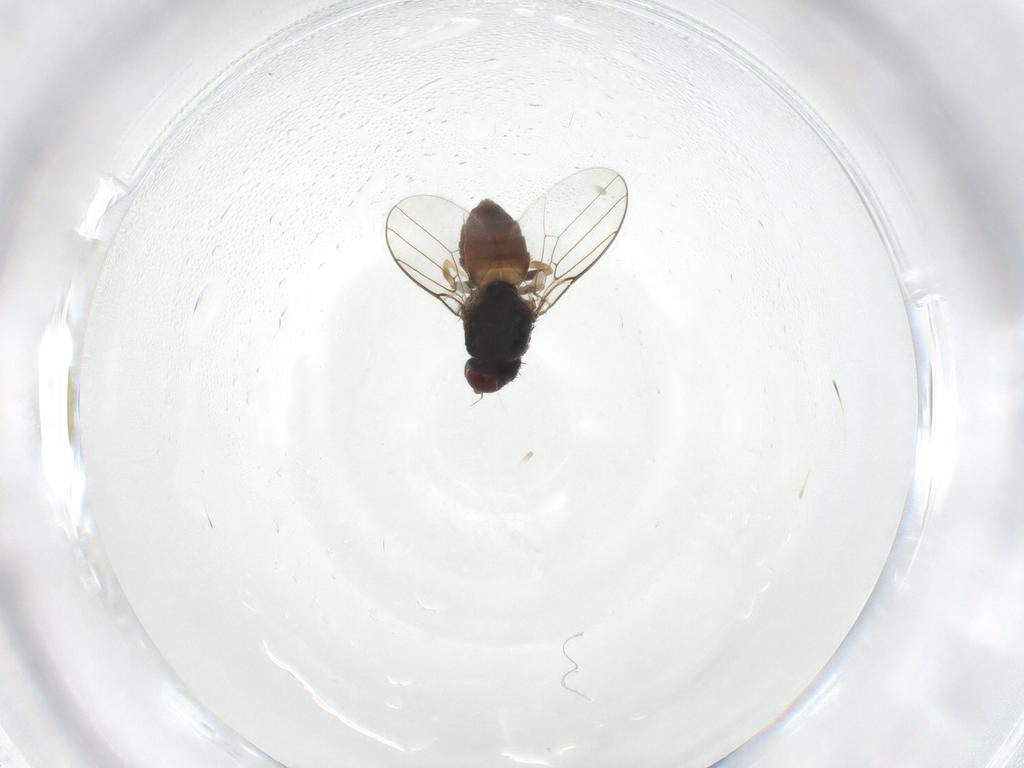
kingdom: Animalia
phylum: Arthropoda
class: Insecta
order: Diptera
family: Chloropidae
